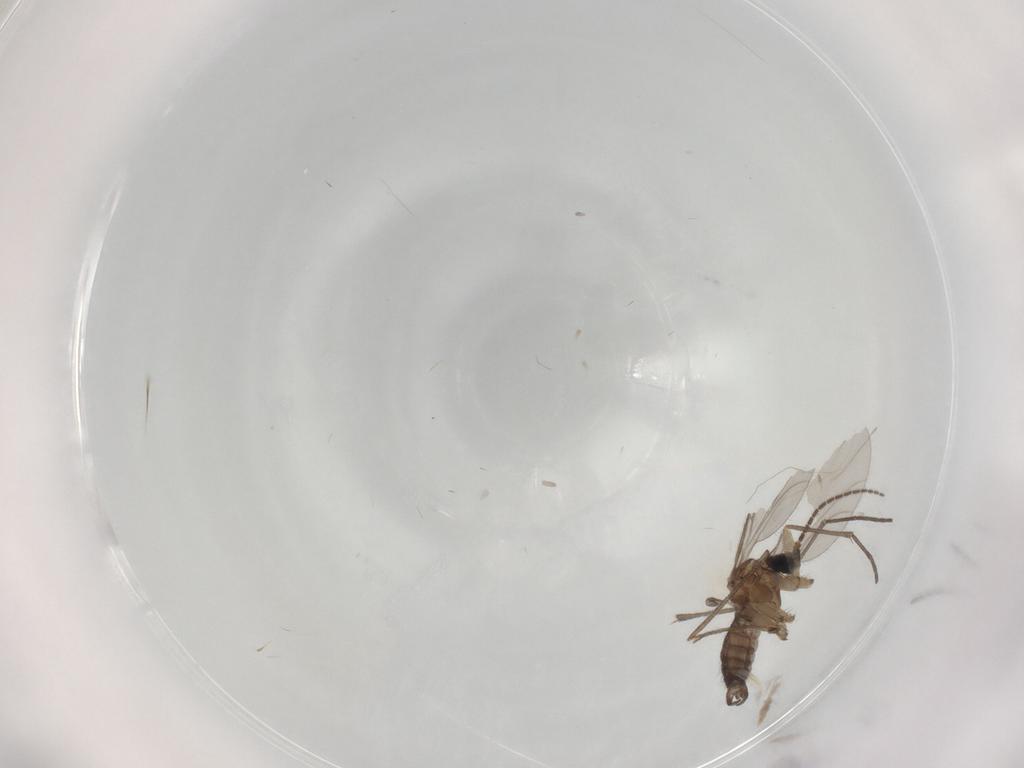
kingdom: Animalia
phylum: Arthropoda
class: Insecta
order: Diptera
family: Sciaridae
